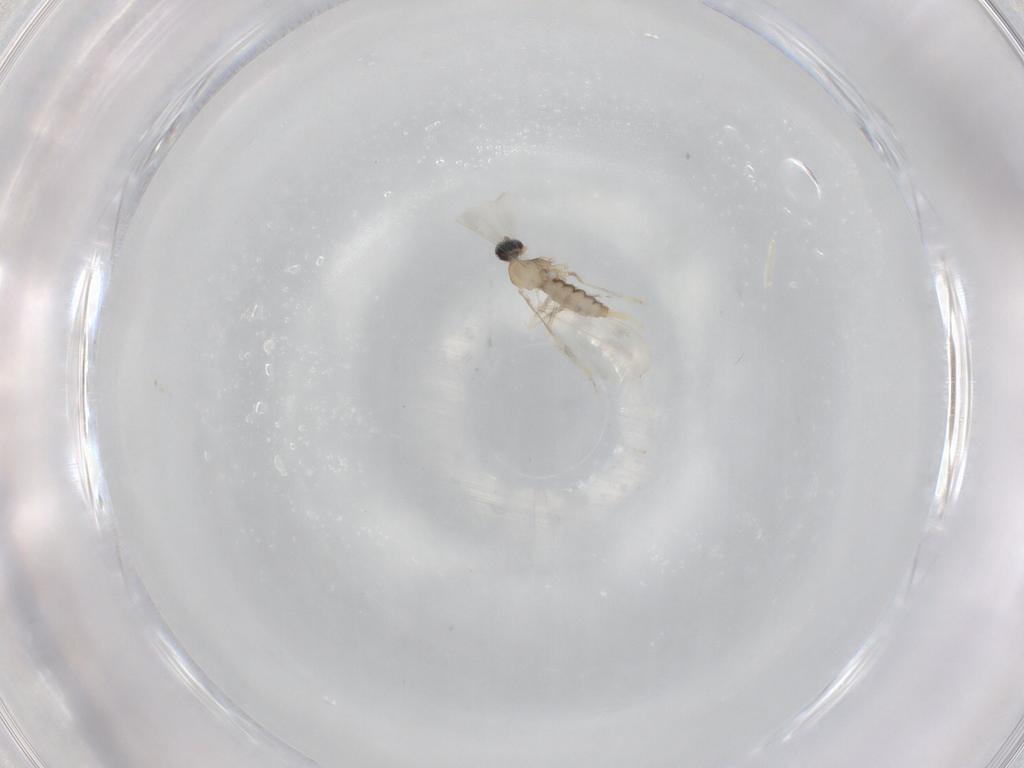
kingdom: Animalia
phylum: Arthropoda
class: Insecta
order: Diptera
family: Cecidomyiidae
